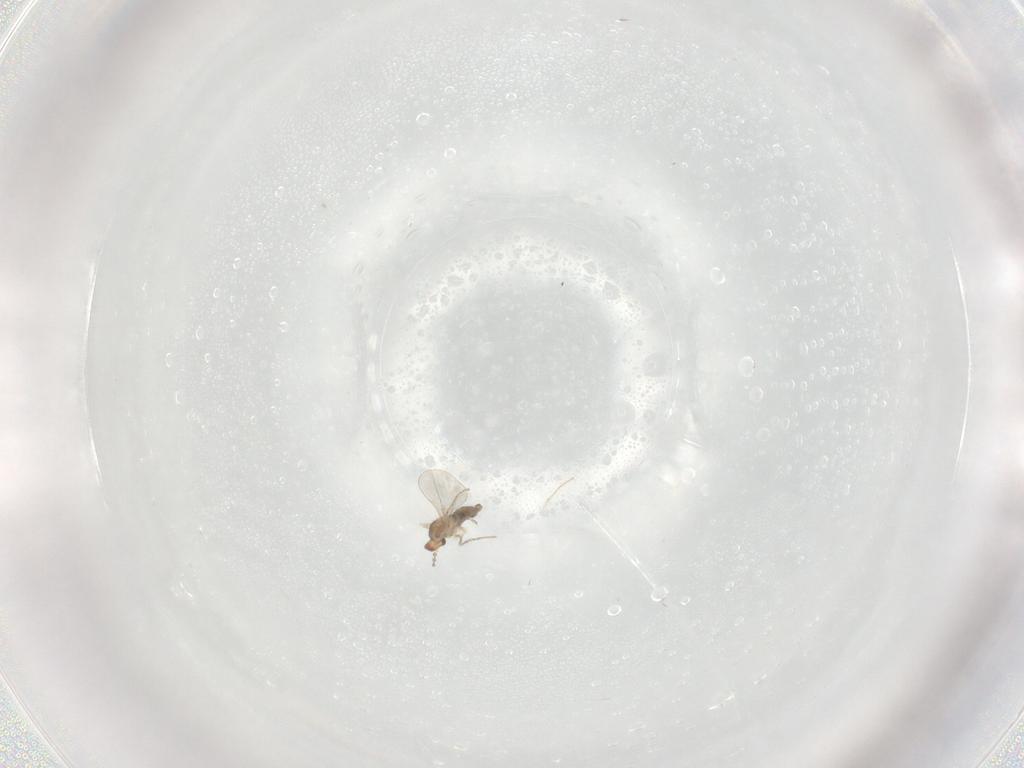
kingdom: Animalia
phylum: Arthropoda
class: Insecta
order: Diptera
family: Cecidomyiidae
